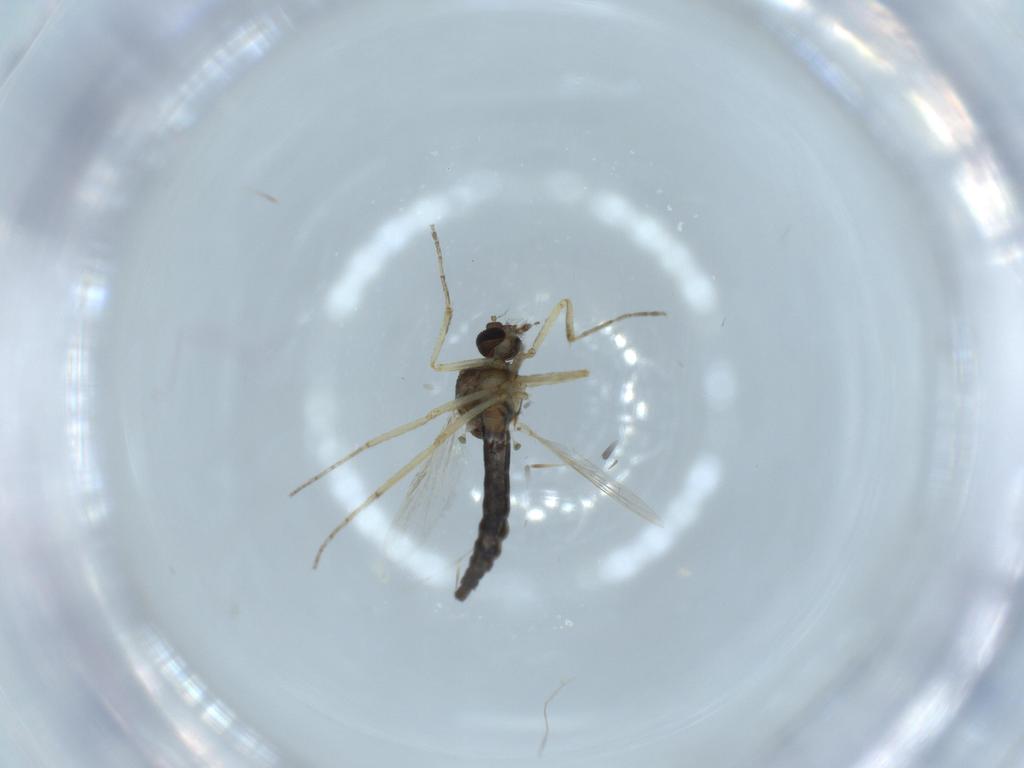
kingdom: Animalia
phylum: Arthropoda
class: Insecta
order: Diptera
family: Ceratopogonidae
